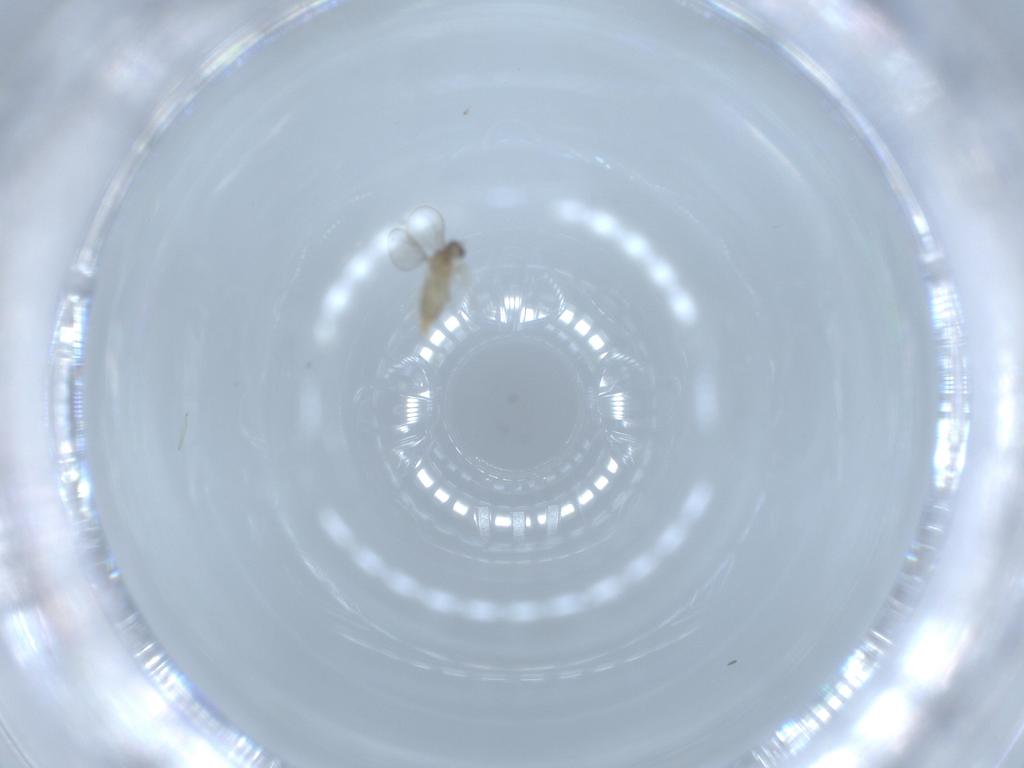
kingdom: Animalia
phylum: Arthropoda
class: Insecta
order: Diptera
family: Cecidomyiidae
